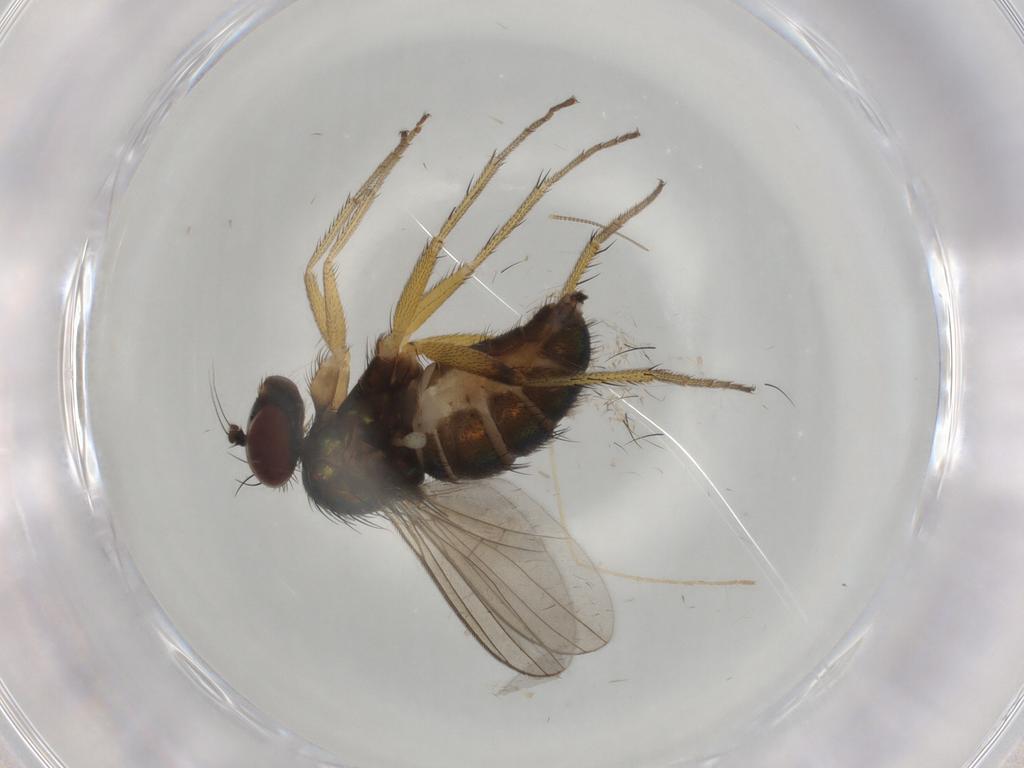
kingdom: Animalia
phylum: Arthropoda
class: Insecta
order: Diptera
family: Dolichopodidae
